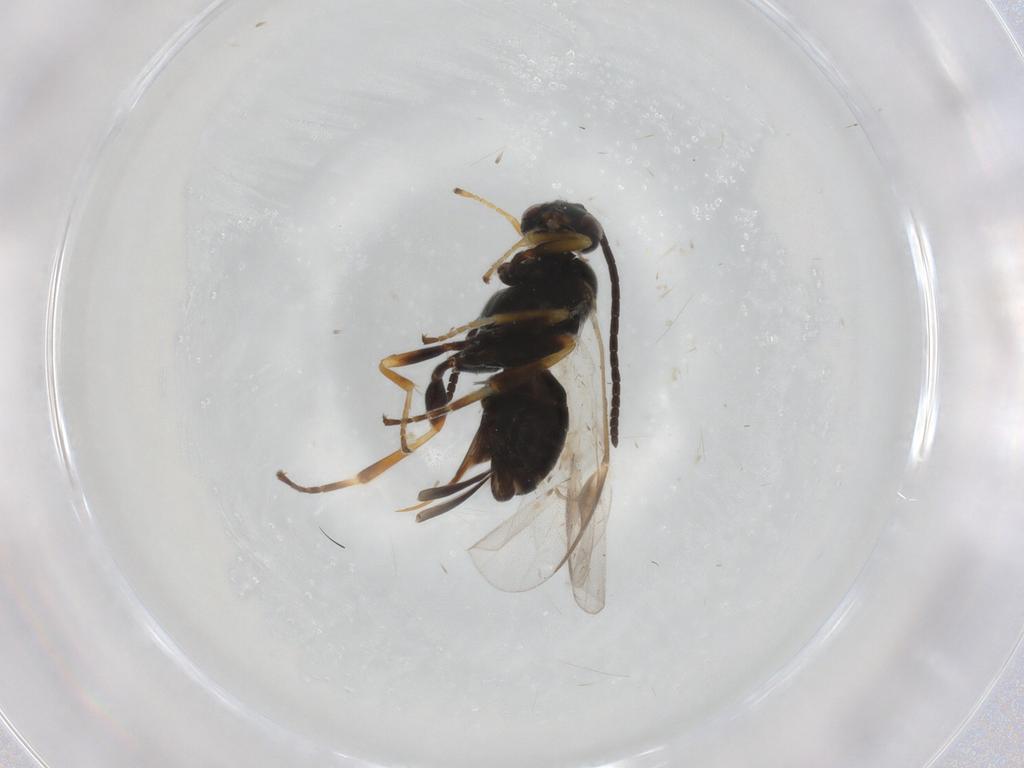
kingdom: Animalia
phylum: Arthropoda
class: Insecta
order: Hymenoptera
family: Braconidae
